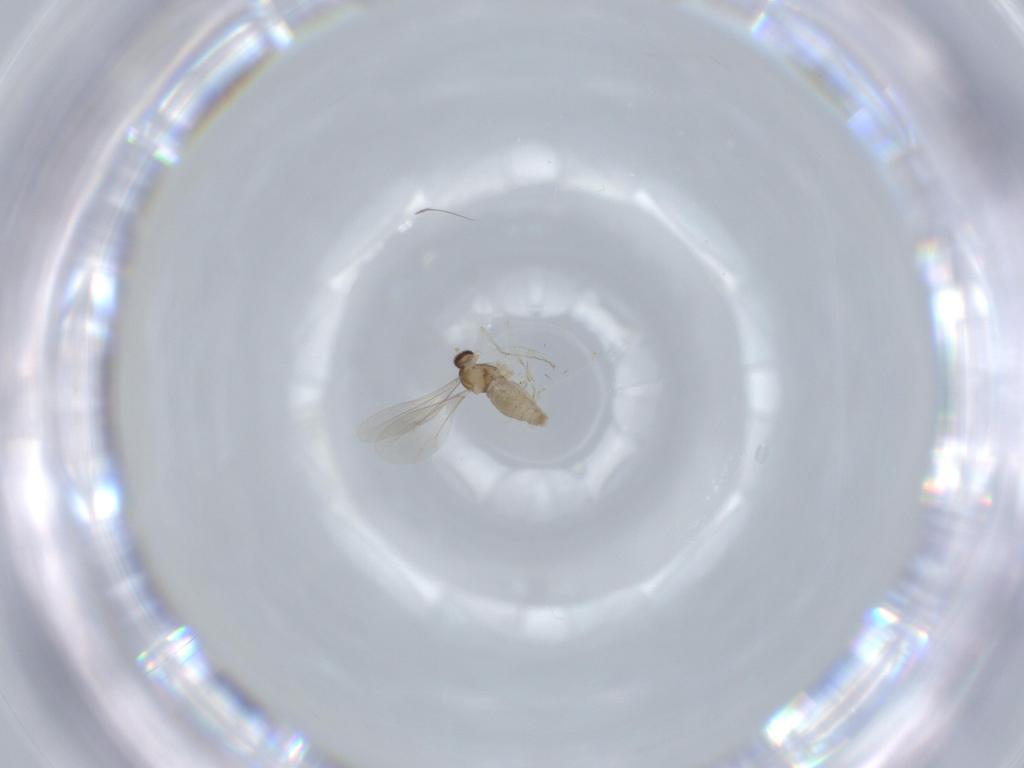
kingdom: Animalia
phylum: Arthropoda
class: Insecta
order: Diptera
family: Cecidomyiidae
